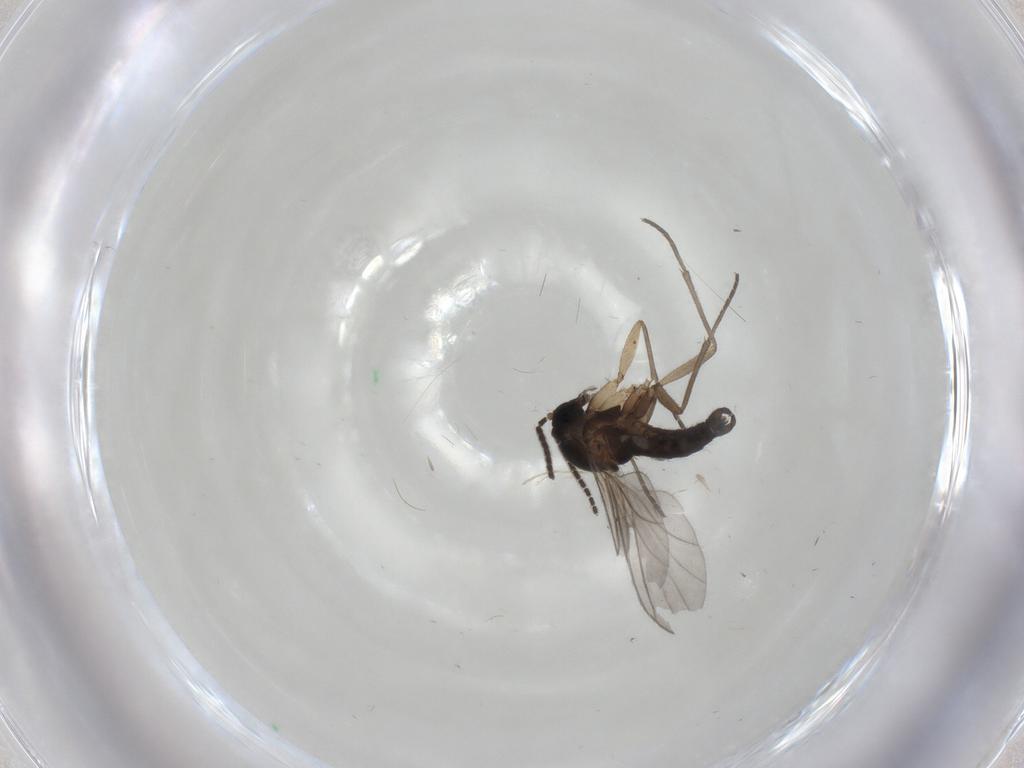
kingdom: Animalia
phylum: Arthropoda
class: Insecta
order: Diptera
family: Sciaridae
